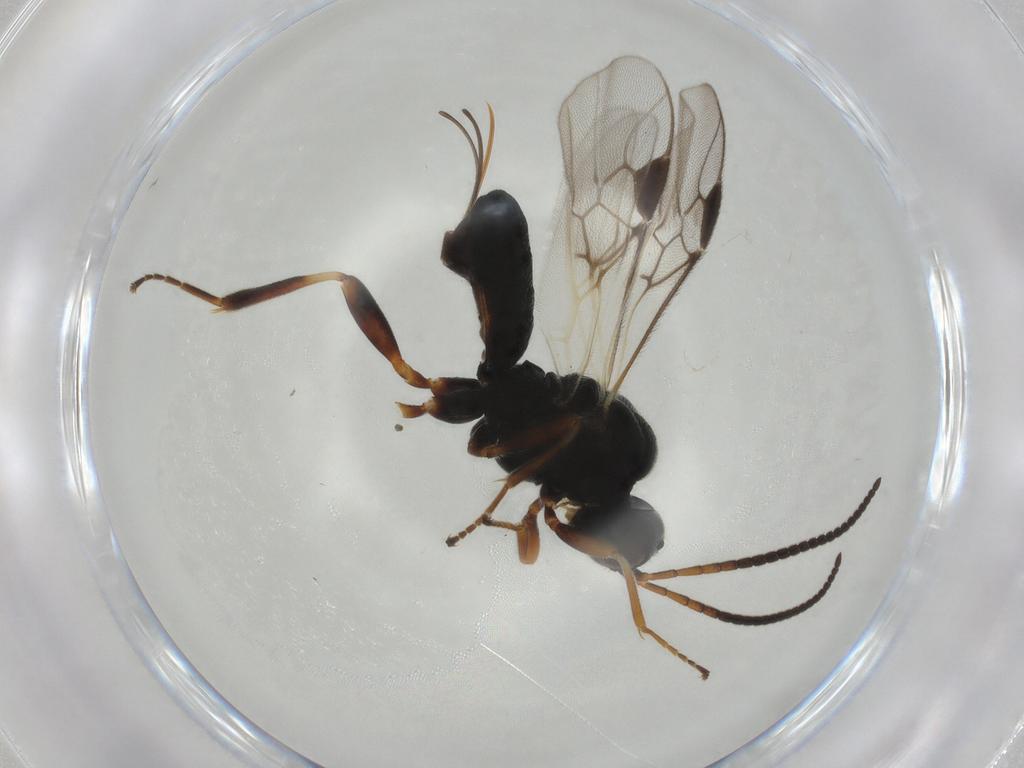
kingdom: Animalia
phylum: Arthropoda
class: Insecta
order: Hymenoptera
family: Braconidae
